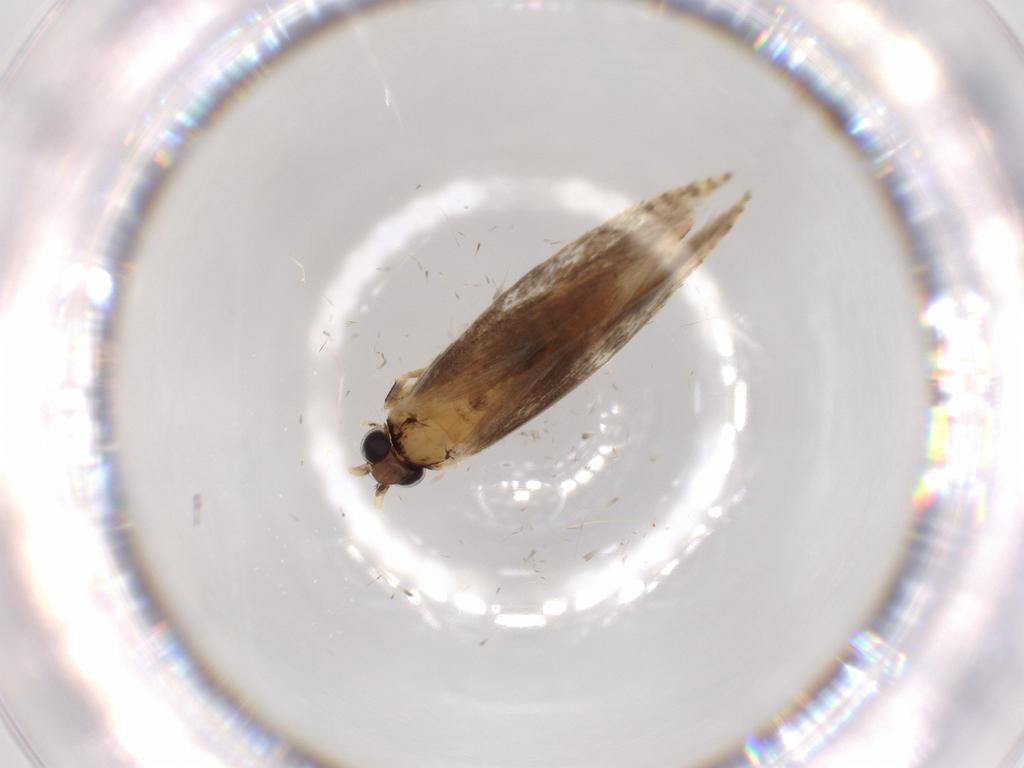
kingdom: Animalia
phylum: Arthropoda
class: Insecta
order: Lepidoptera
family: Tineidae
